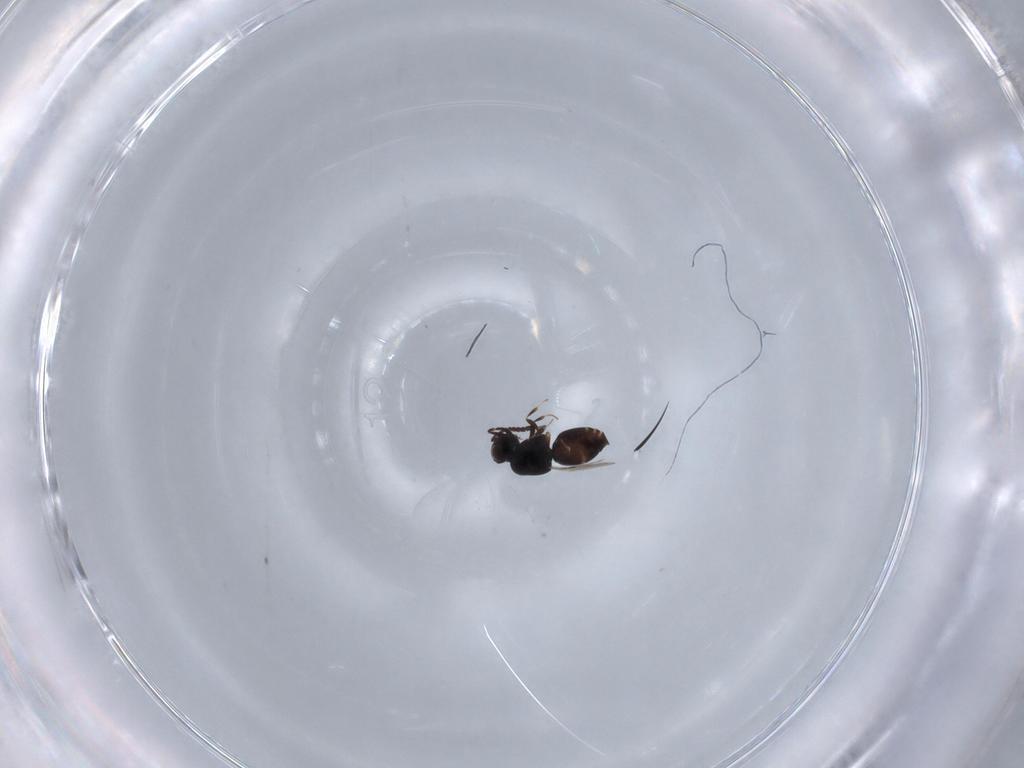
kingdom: Animalia
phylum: Arthropoda
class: Insecta
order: Hymenoptera
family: Ceraphronidae
